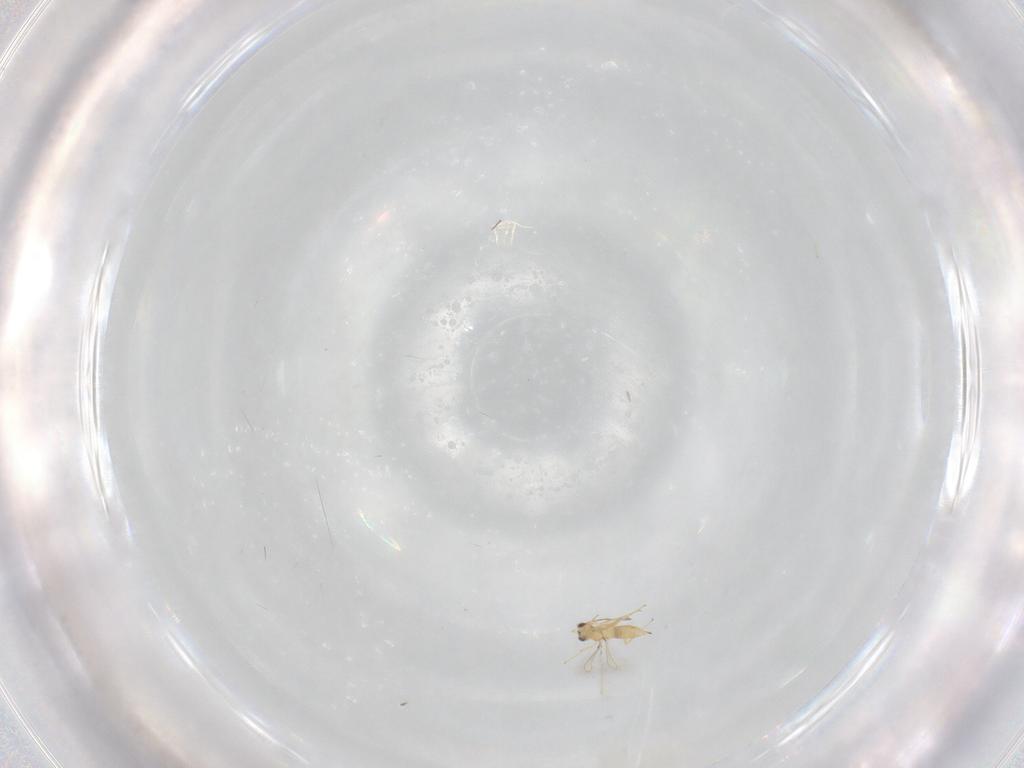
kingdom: Animalia
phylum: Arthropoda
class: Insecta
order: Hymenoptera
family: Mymaridae
